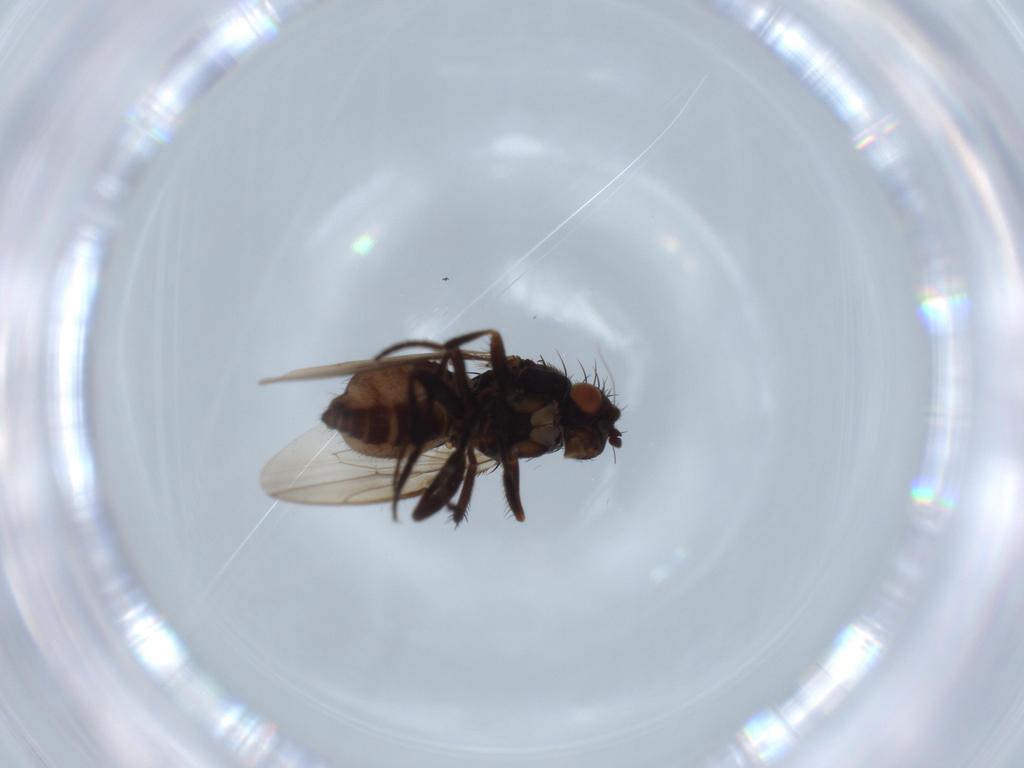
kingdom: Animalia
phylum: Arthropoda
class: Insecta
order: Diptera
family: Sphaeroceridae
